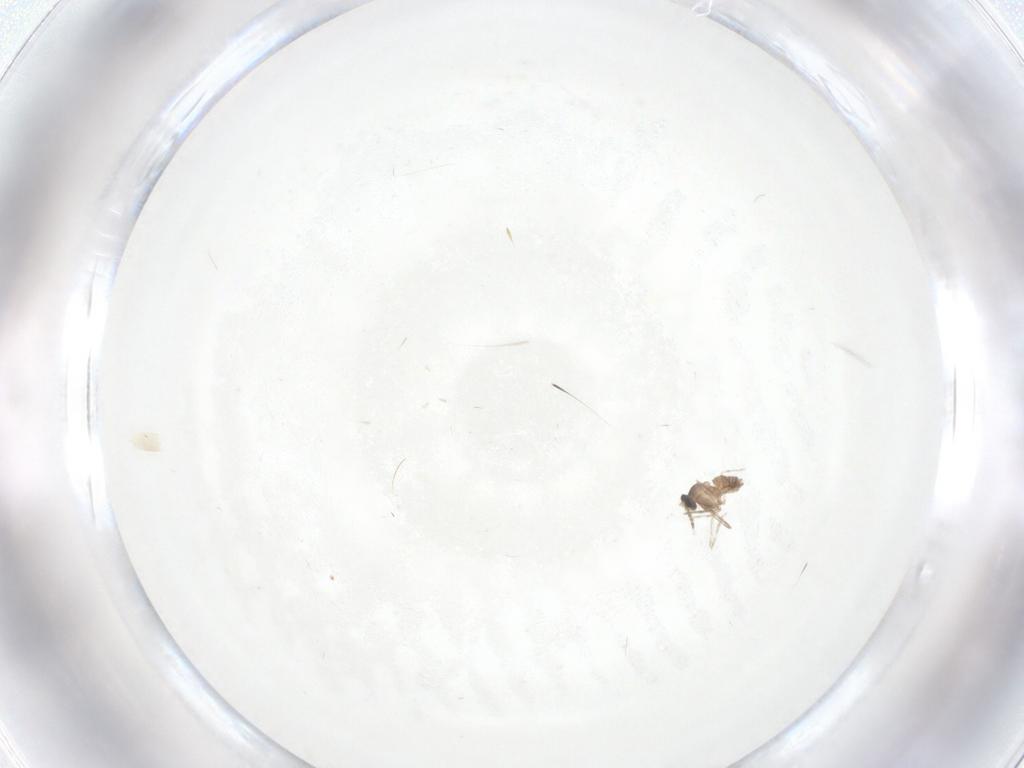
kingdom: Animalia
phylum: Arthropoda
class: Insecta
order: Diptera
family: Cecidomyiidae
